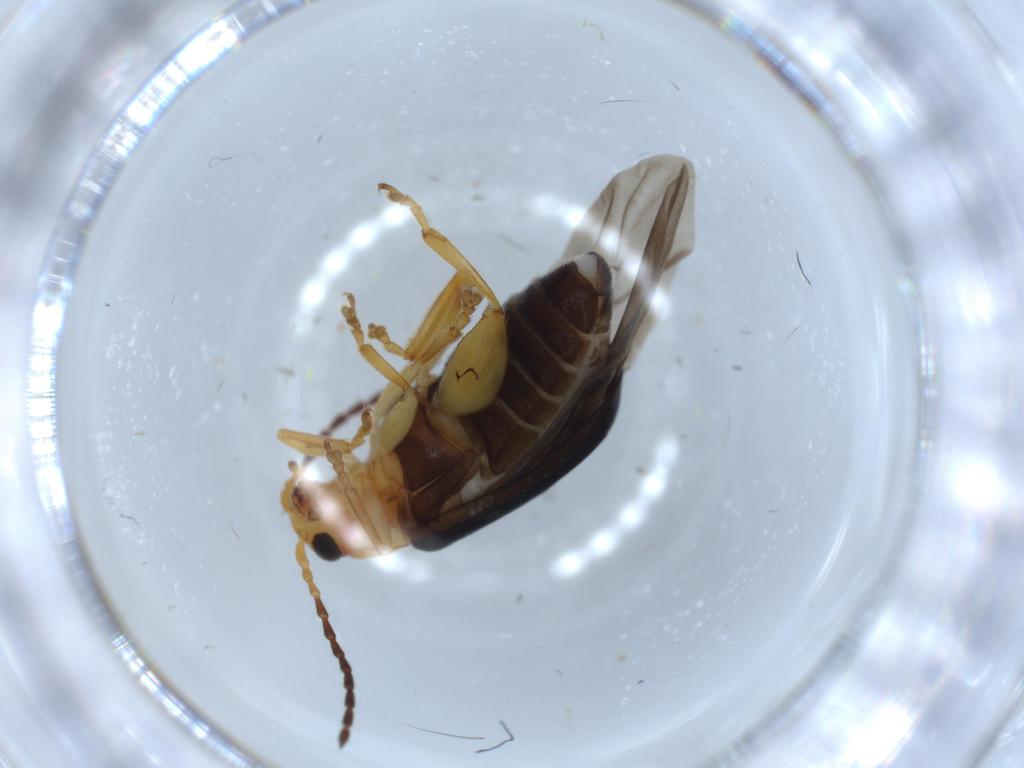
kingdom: Animalia
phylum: Arthropoda
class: Insecta
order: Coleoptera
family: Chrysomelidae
